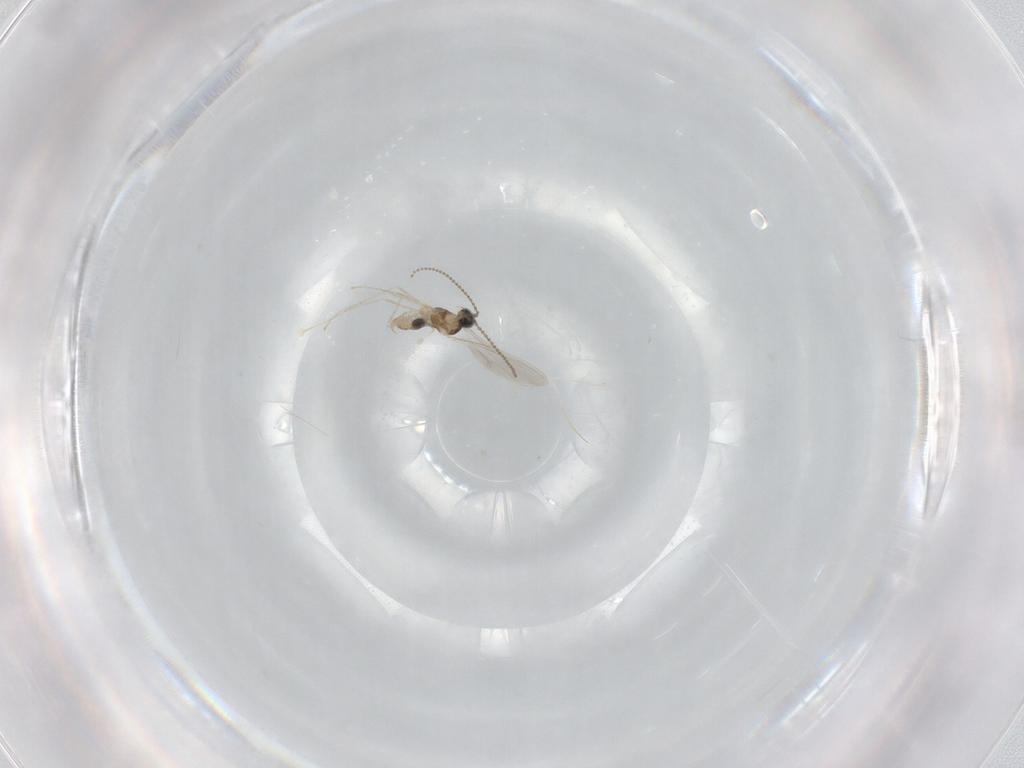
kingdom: Animalia
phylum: Arthropoda
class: Insecta
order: Diptera
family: Cecidomyiidae
